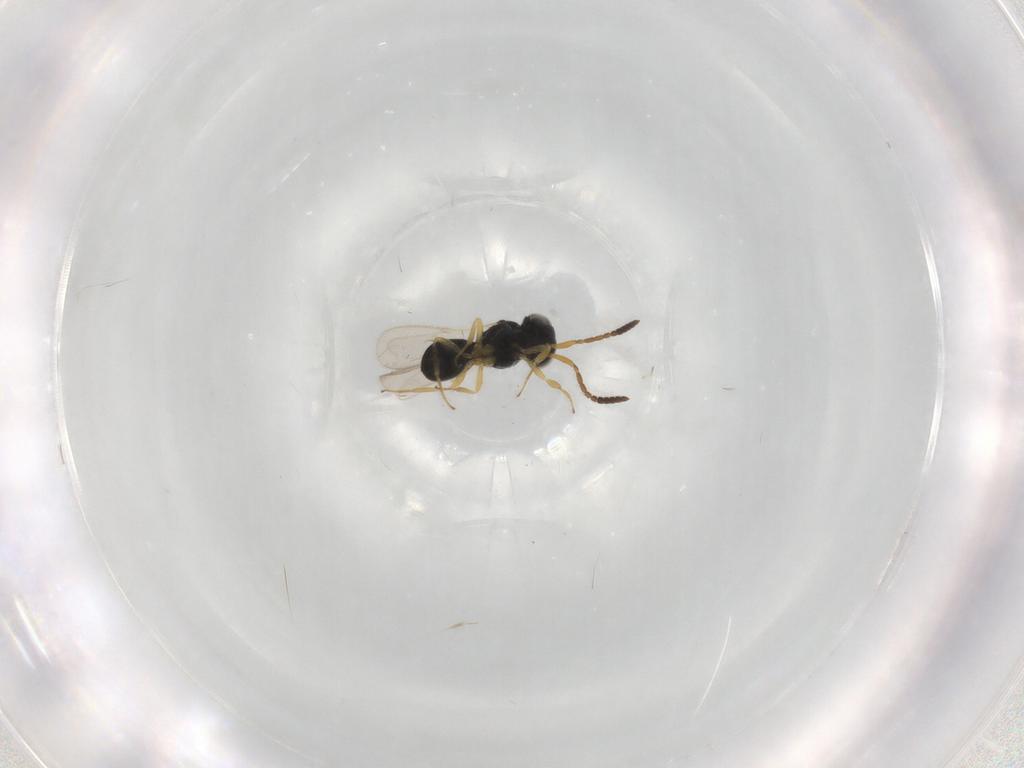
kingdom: Animalia
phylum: Arthropoda
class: Insecta
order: Hymenoptera
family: Scelionidae
